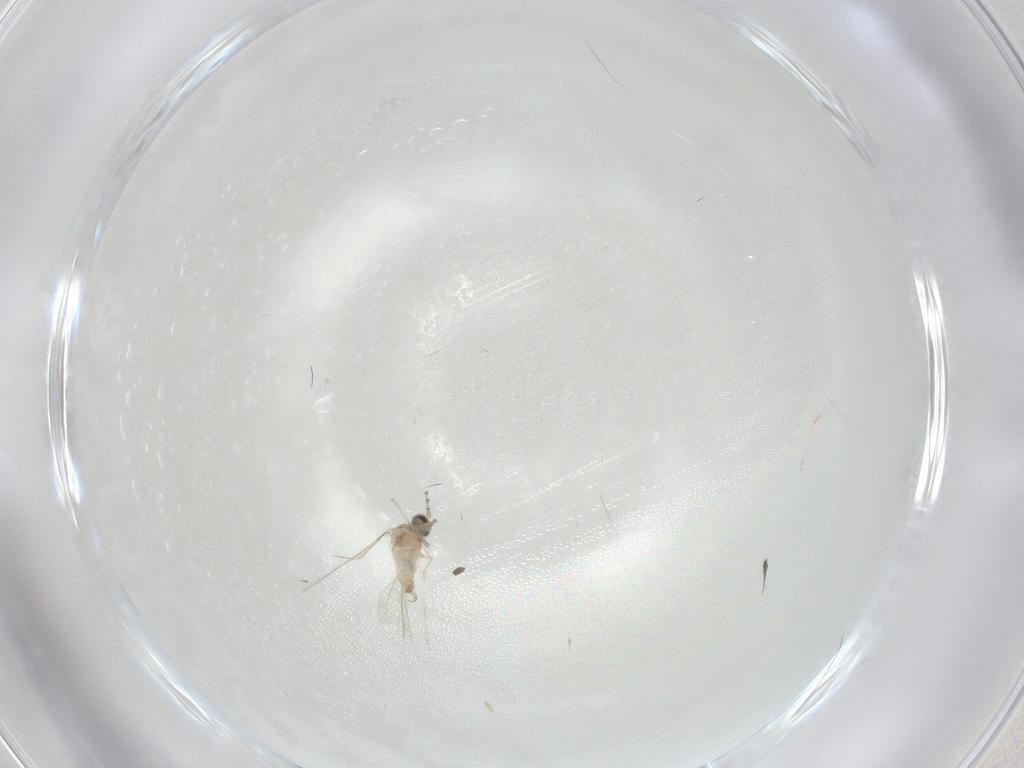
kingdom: Animalia
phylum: Arthropoda
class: Insecta
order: Diptera
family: Cecidomyiidae
